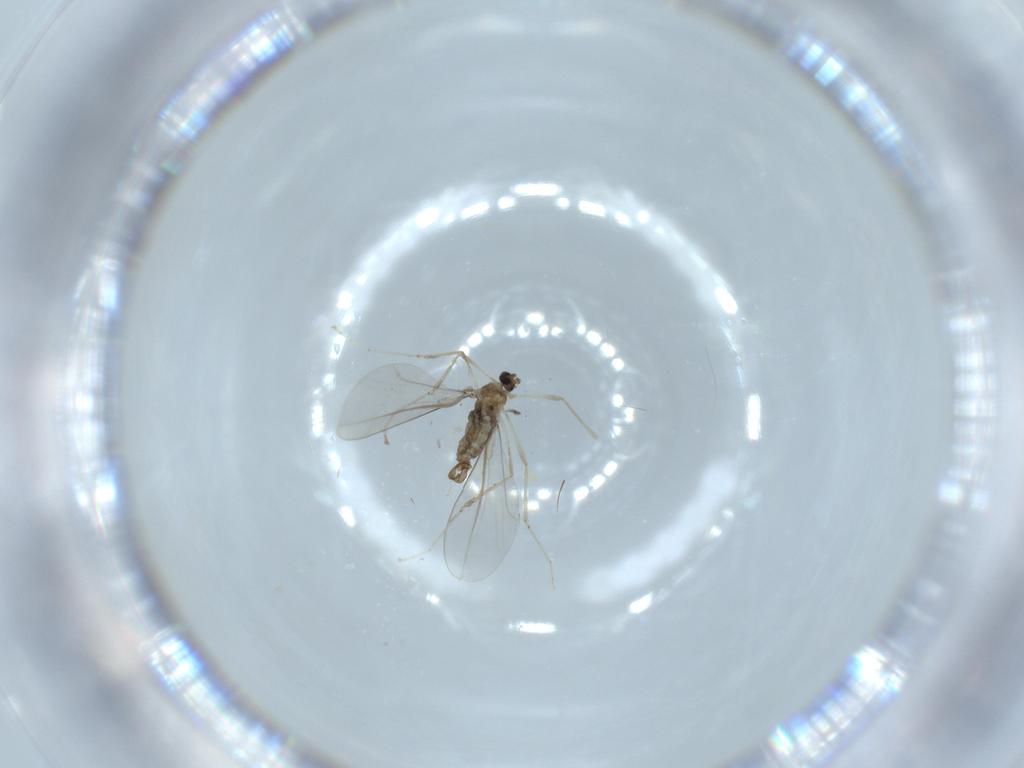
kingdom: Animalia
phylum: Arthropoda
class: Insecta
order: Diptera
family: Cecidomyiidae
